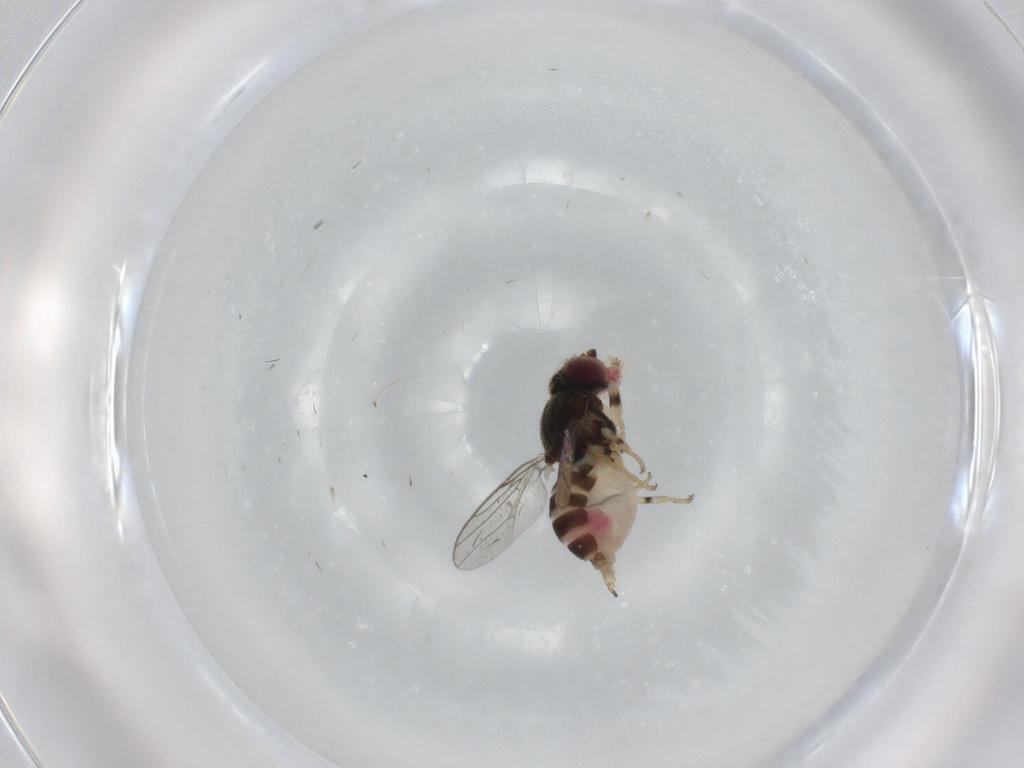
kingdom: Animalia
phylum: Arthropoda
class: Insecta
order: Diptera
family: Chloropidae
